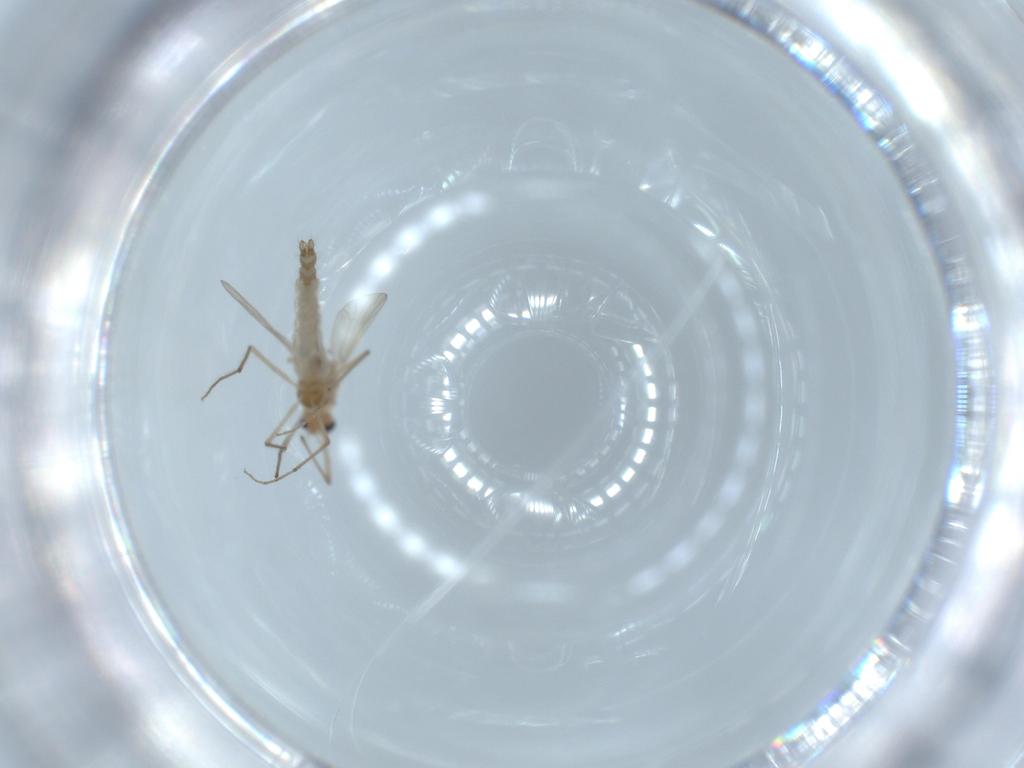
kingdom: Animalia
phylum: Arthropoda
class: Insecta
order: Diptera
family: Chironomidae
